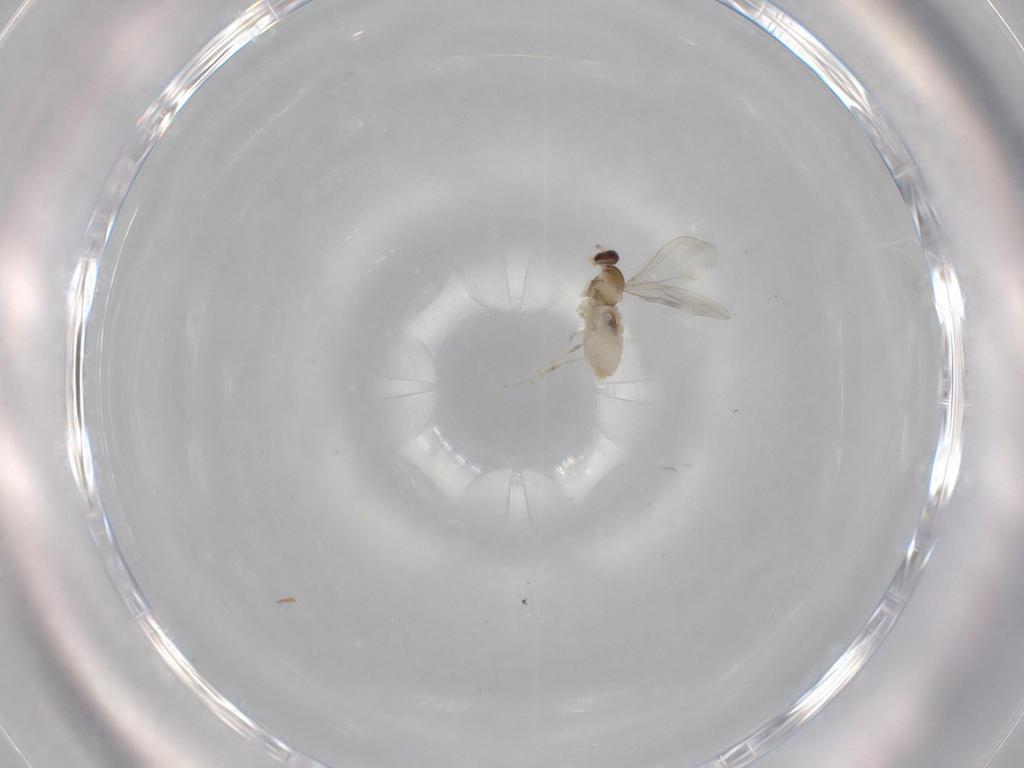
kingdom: Animalia
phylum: Arthropoda
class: Insecta
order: Diptera
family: Cecidomyiidae
